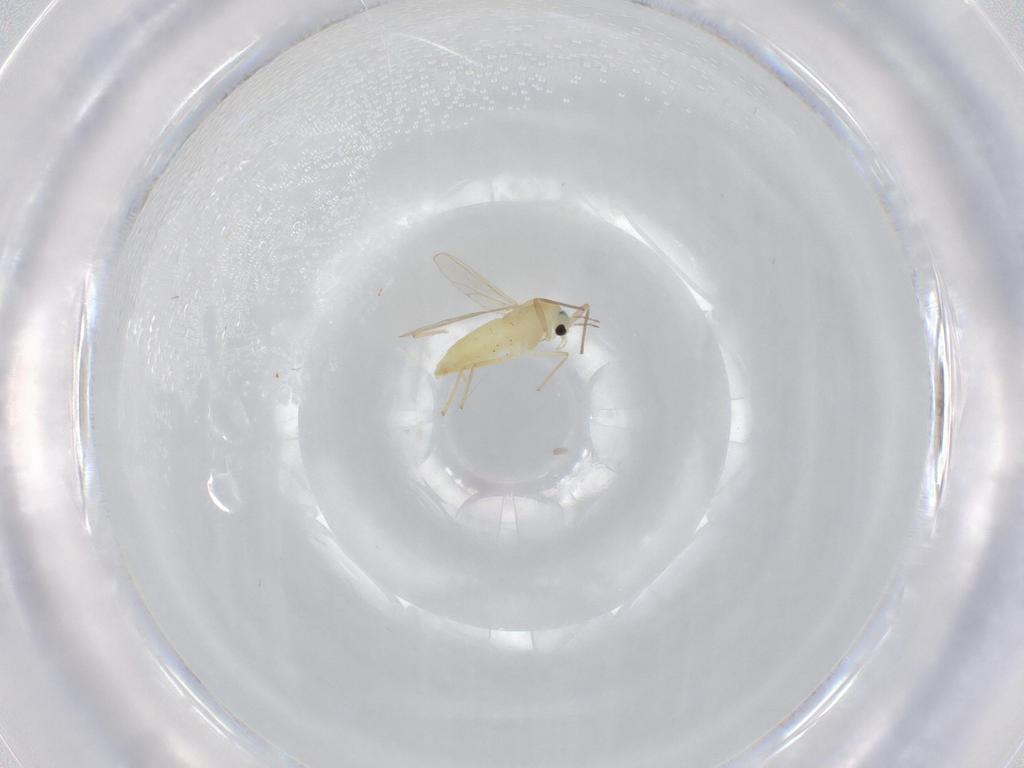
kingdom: Animalia
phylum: Arthropoda
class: Insecta
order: Diptera
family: Chironomidae
